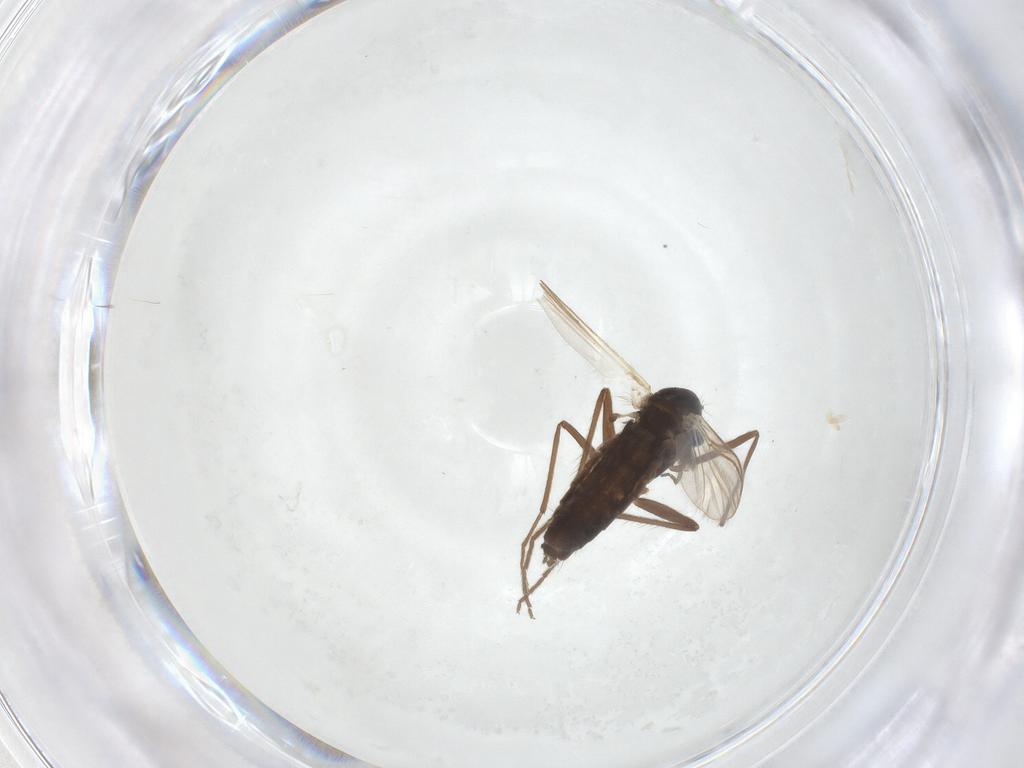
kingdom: Animalia
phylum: Arthropoda
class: Insecta
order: Diptera
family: Chironomidae
